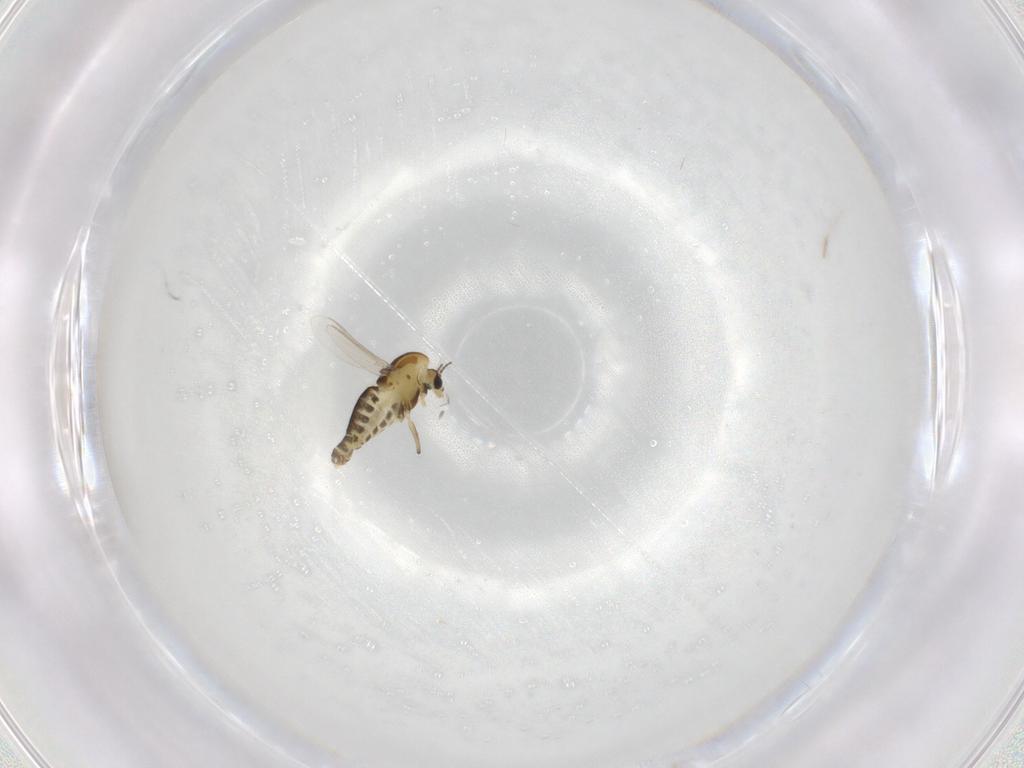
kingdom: Animalia
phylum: Arthropoda
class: Insecta
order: Diptera
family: Chironomidae
